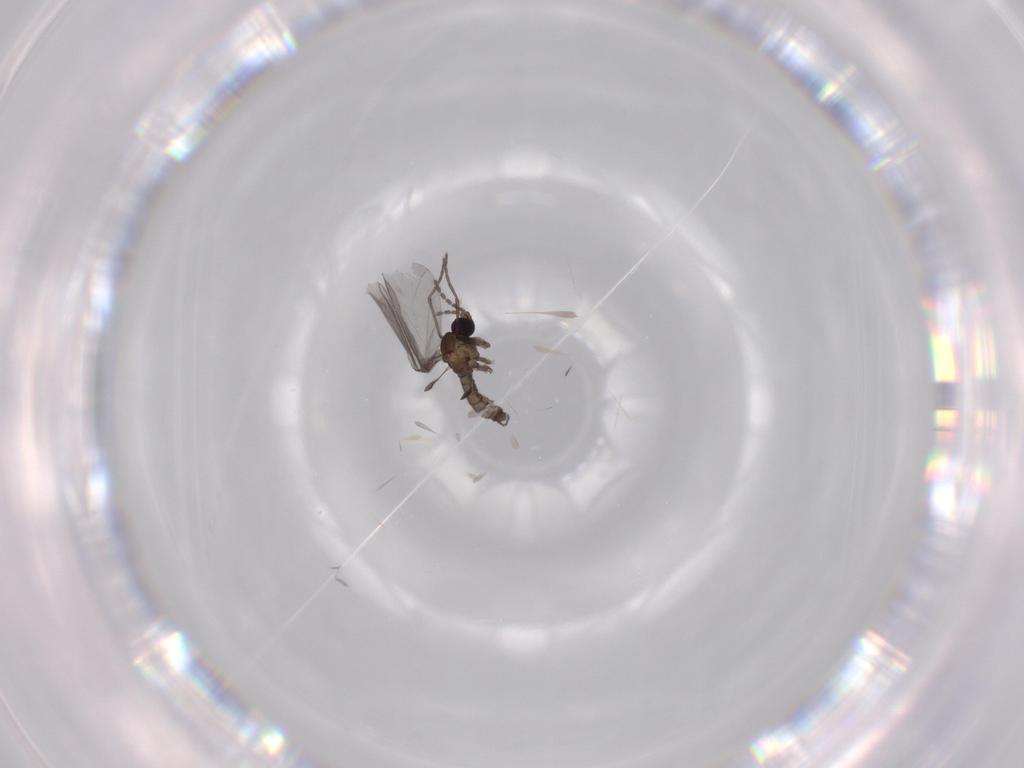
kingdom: Animalia
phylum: Arthropoda
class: Insecta
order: Diptera
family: Sciaridae
